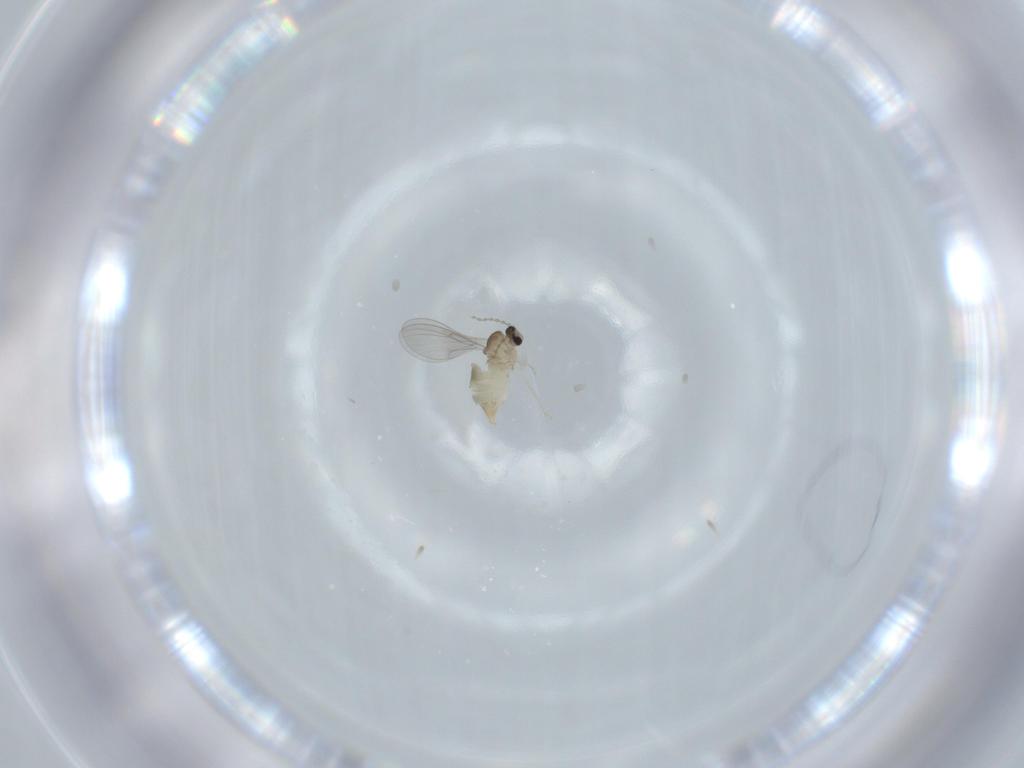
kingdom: Animalia
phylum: Arthropoda
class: Insecta
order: Diptera
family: Cecidomyiidae
